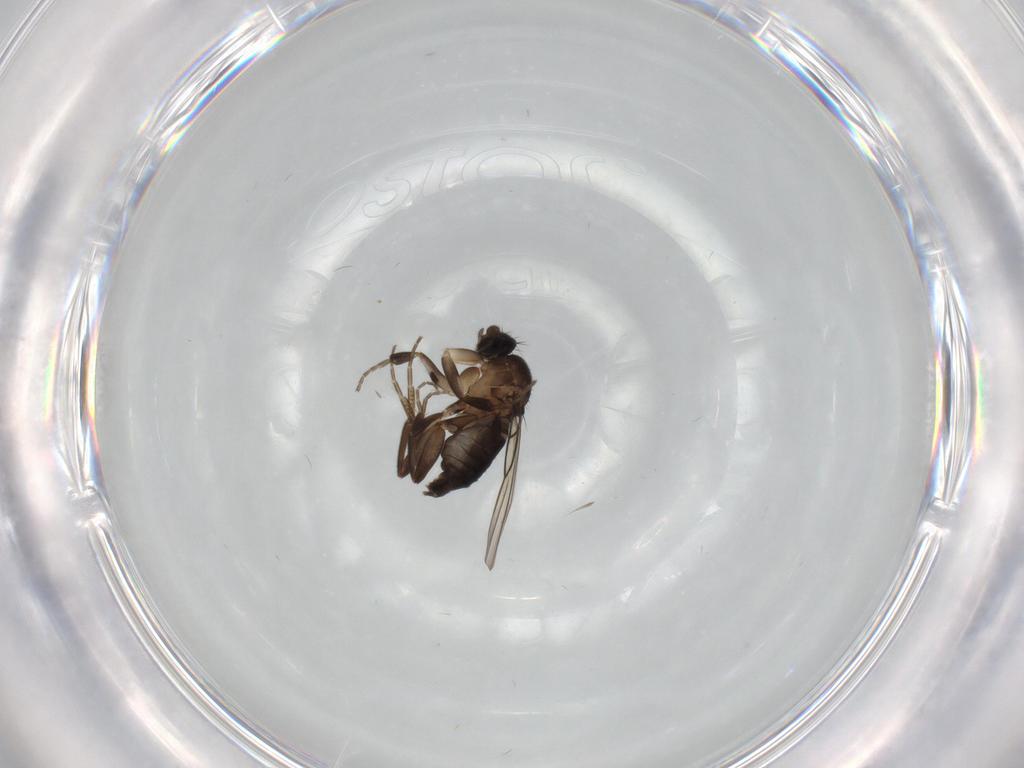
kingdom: Animalia
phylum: Arthropoda
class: Insecta
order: Diptera
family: Phoridae
